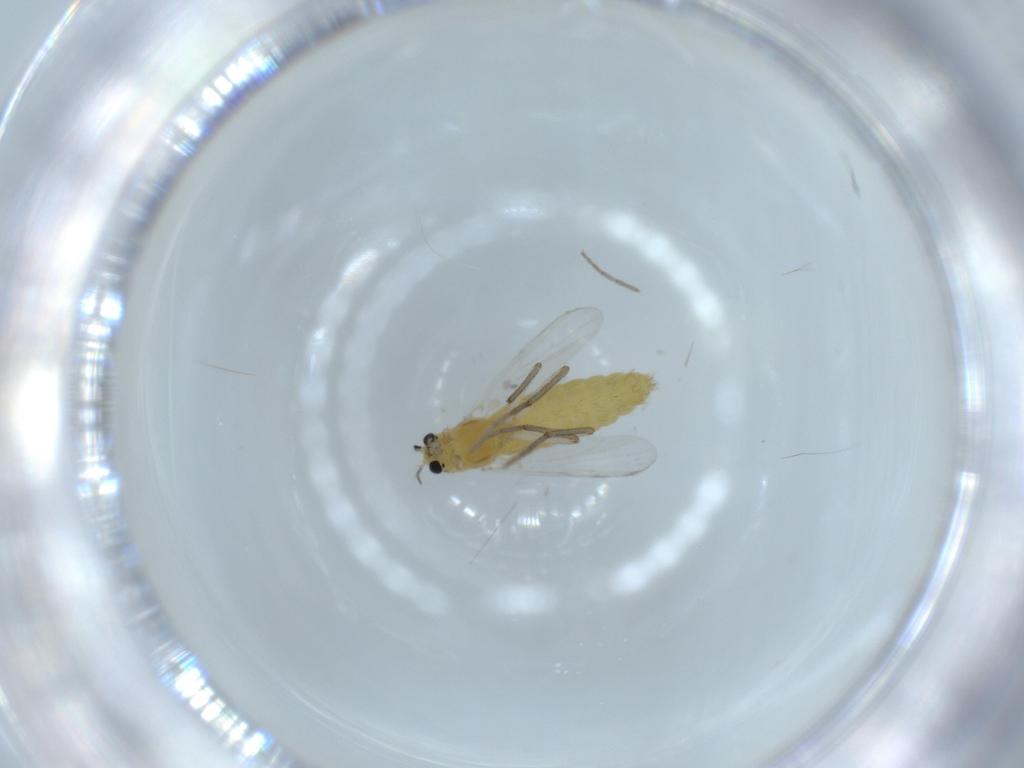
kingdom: Animalia
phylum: Arthropoda
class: Insecta
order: Diptera
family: Chironomidae
